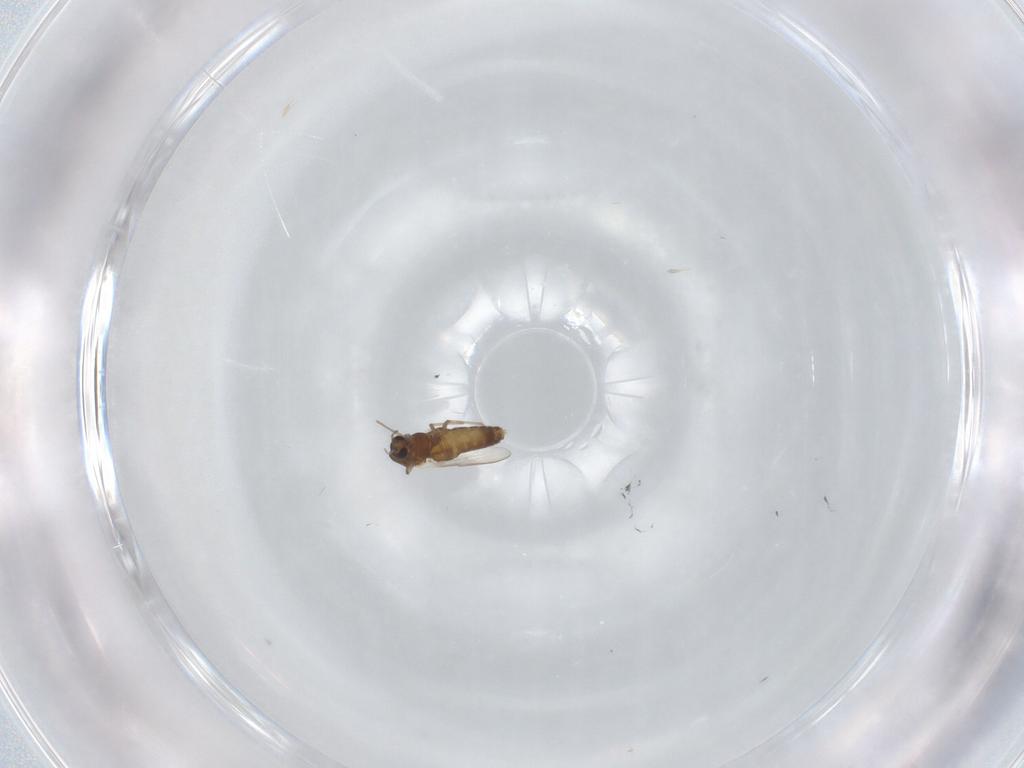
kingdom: Animalia
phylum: Arthropoda
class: Insecta
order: Diptera
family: Chironomidae
